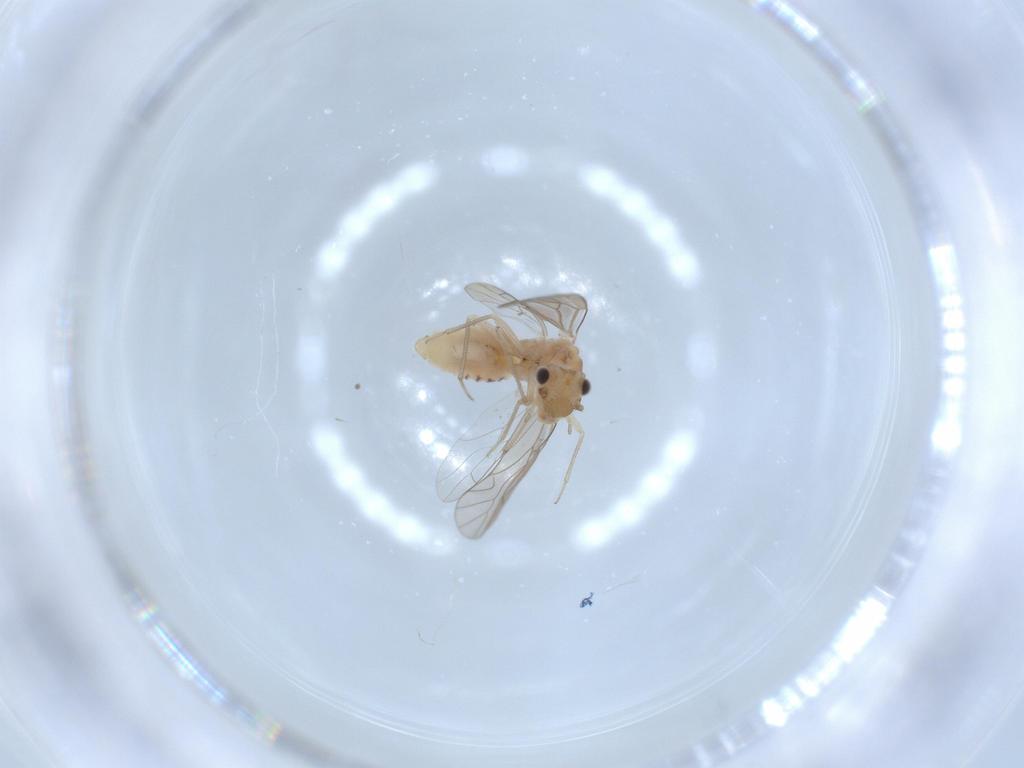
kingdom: Animalia
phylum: Arthropoda
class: Insecta
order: Psocodea
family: Lachesillidae
